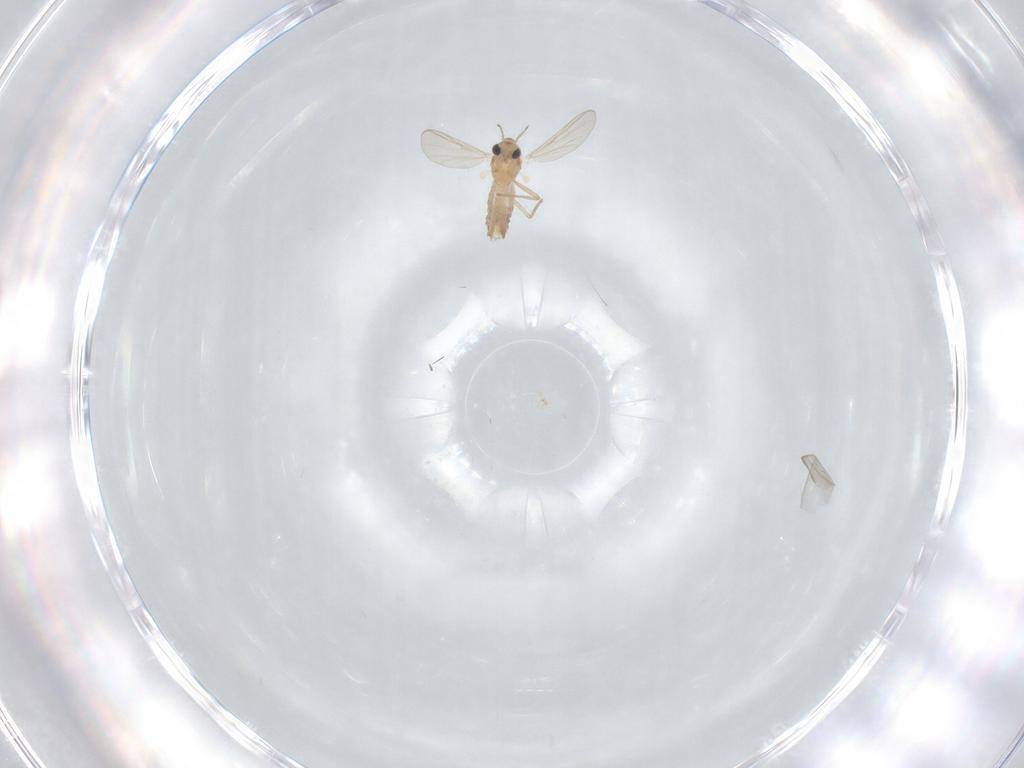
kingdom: Animalia
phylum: Arthropoda
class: Insecta
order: Diptera
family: Chironomidae
